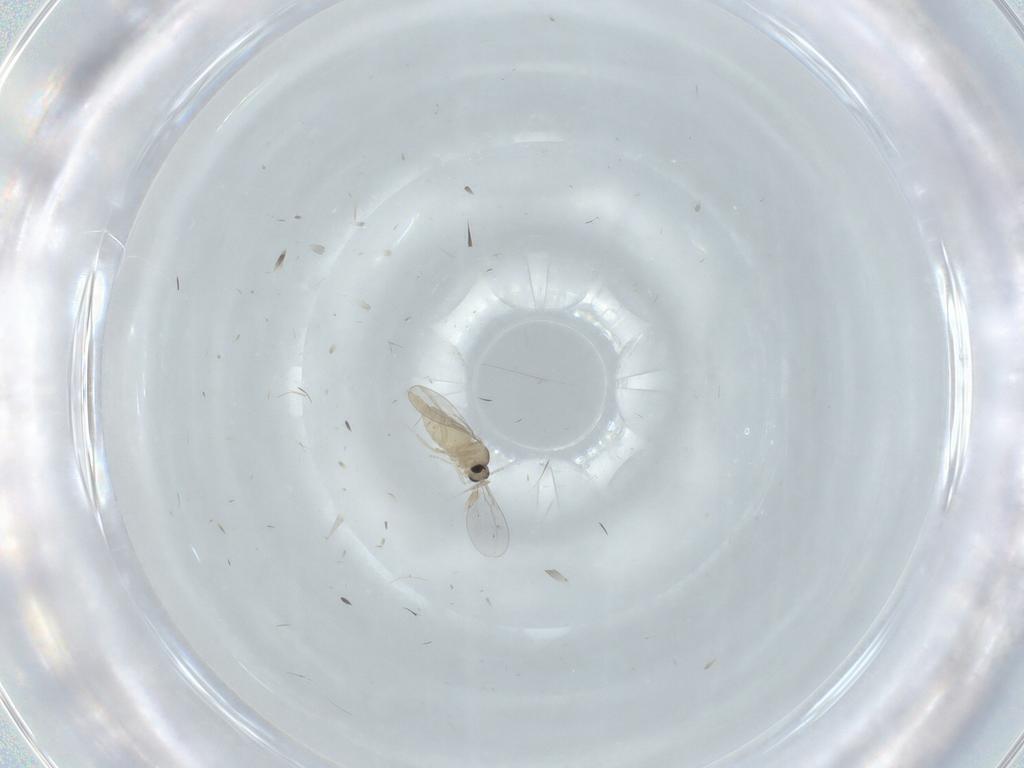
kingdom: Animalia
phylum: Arthropoda
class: Insecta
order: Diptera
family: Cecidomyiidae
